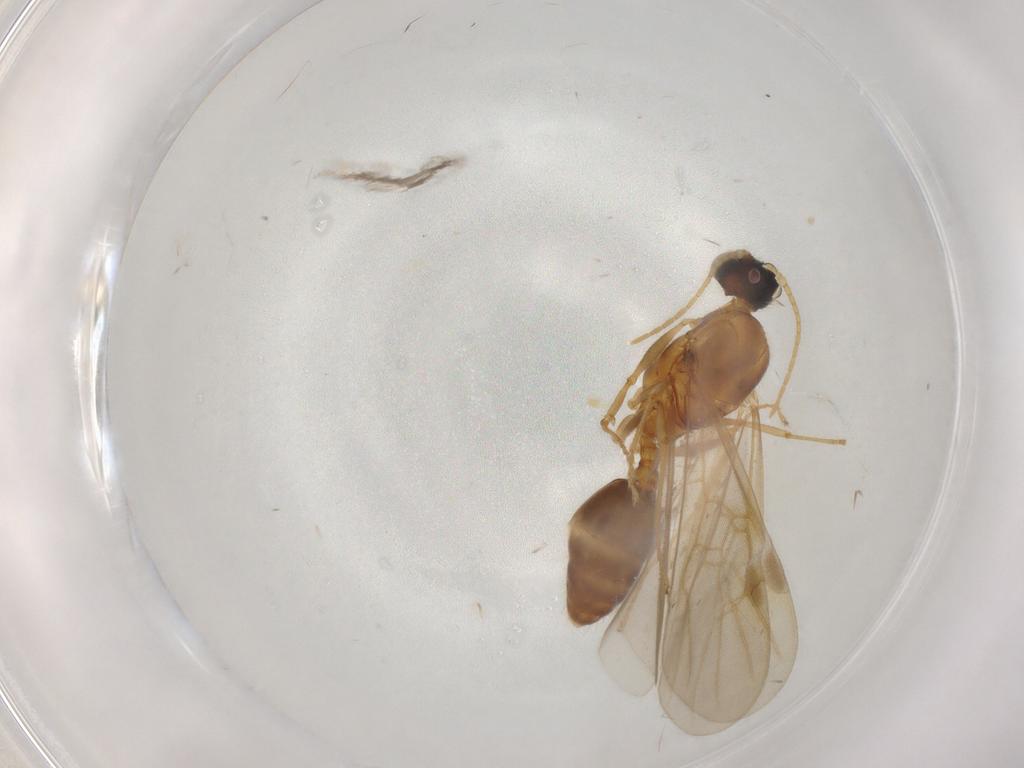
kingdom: Animalia
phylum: Arthropoda
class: Insecta
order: Hymenoptera
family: Formicidae
